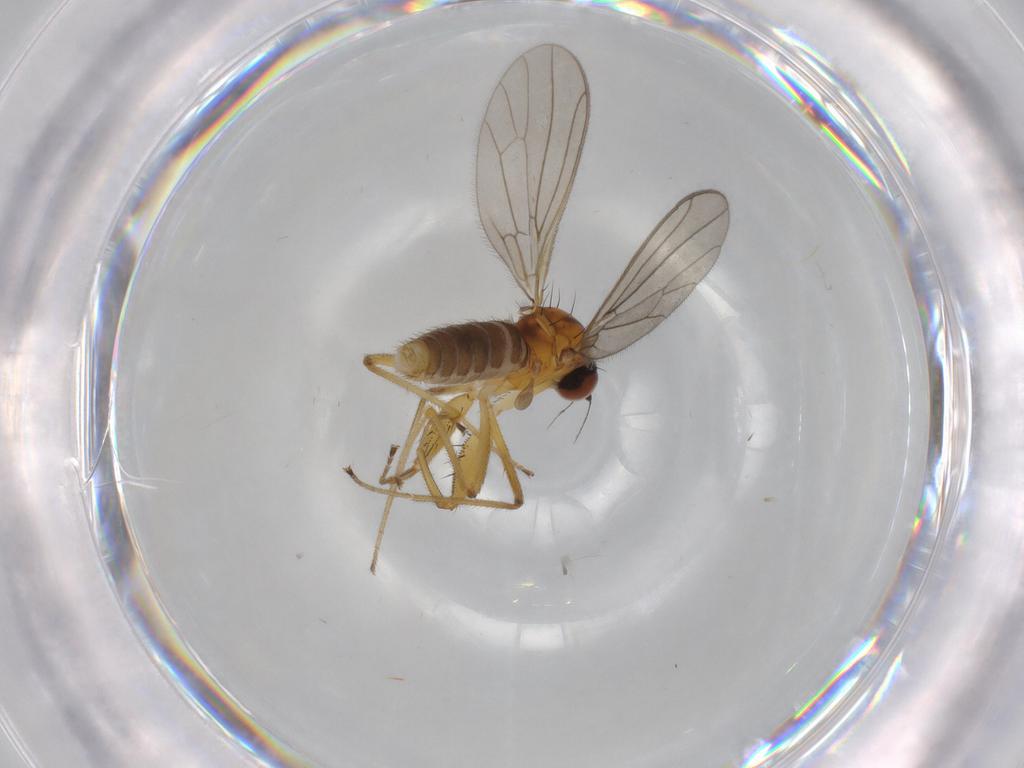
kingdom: Animalia
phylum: Arthropoda
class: Insecta
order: Diptera
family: Empididae
